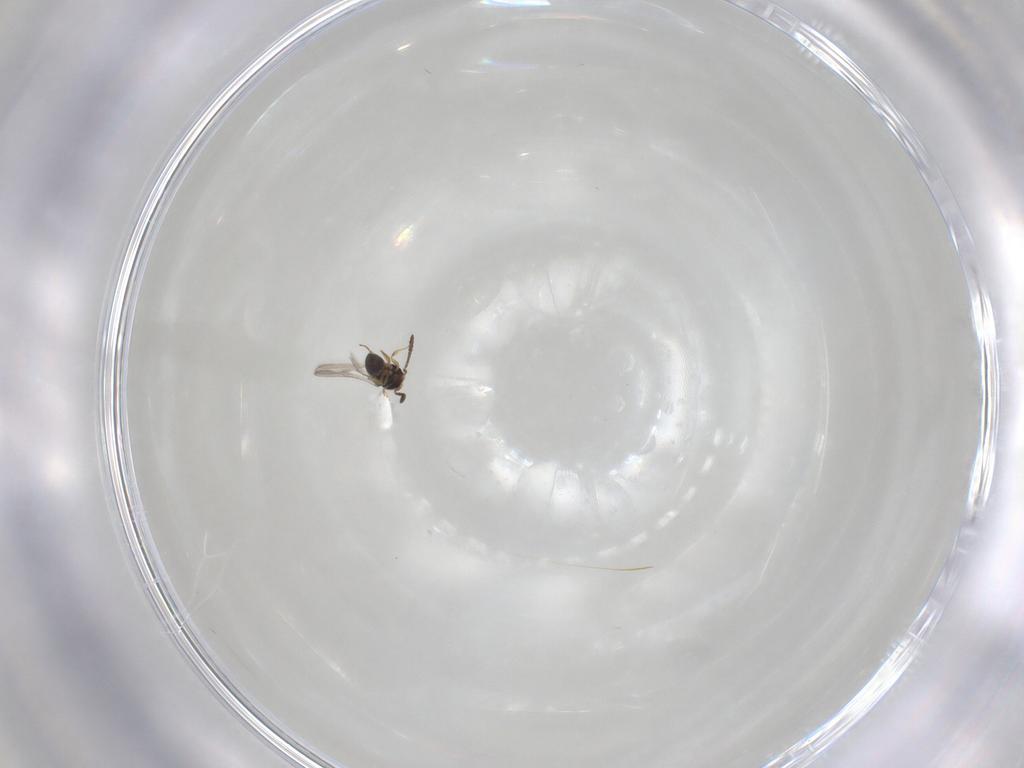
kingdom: Animalia
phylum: Arthropoda
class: Insecta
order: Hymenoptera
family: Scelionidae
